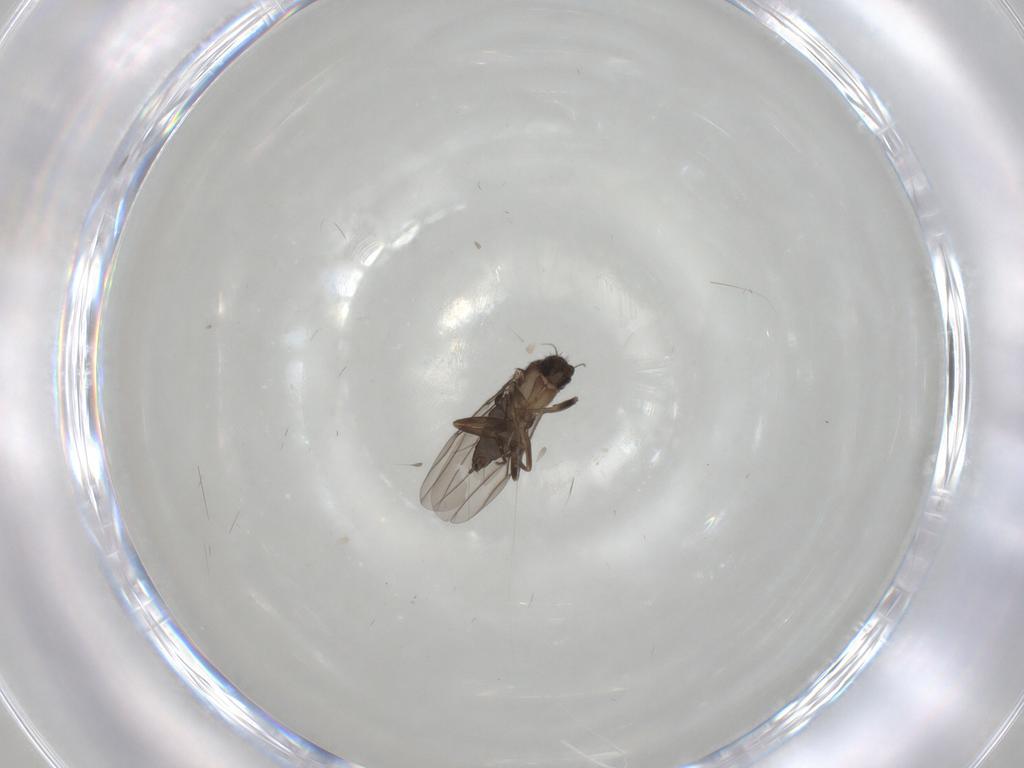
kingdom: Animalia
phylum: Arthropoda
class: Insecta
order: Diptera
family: Phoridae
